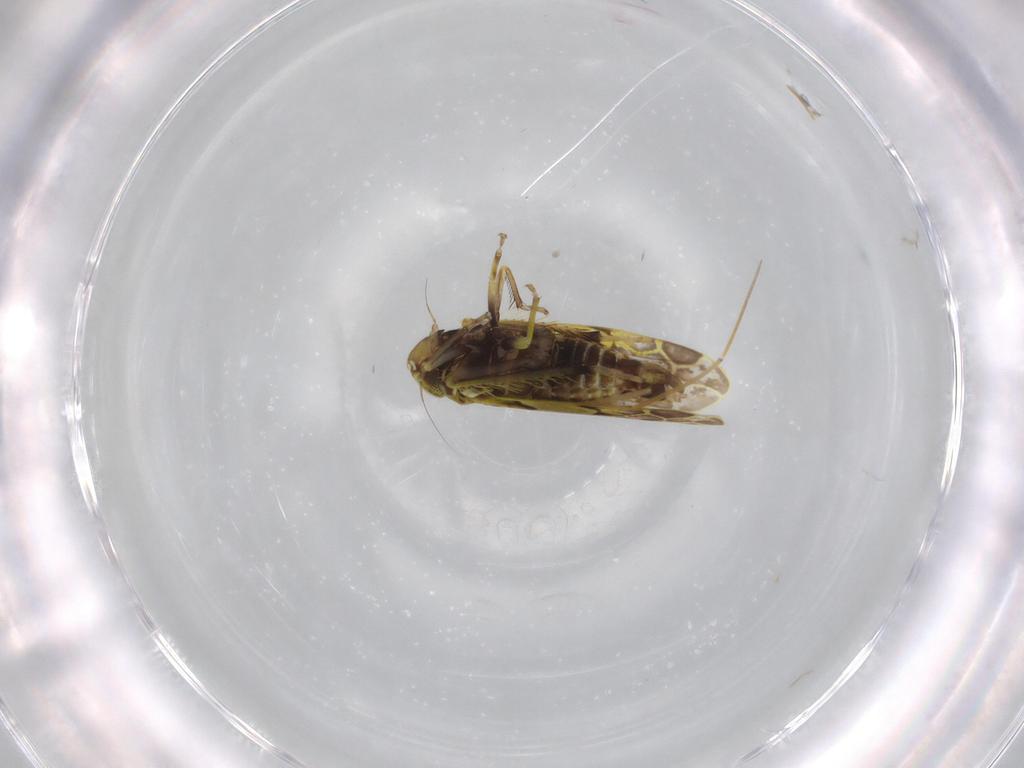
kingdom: Animalia
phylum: Arthropoda
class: Insecta
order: Hemiptera
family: Cicadellidae
